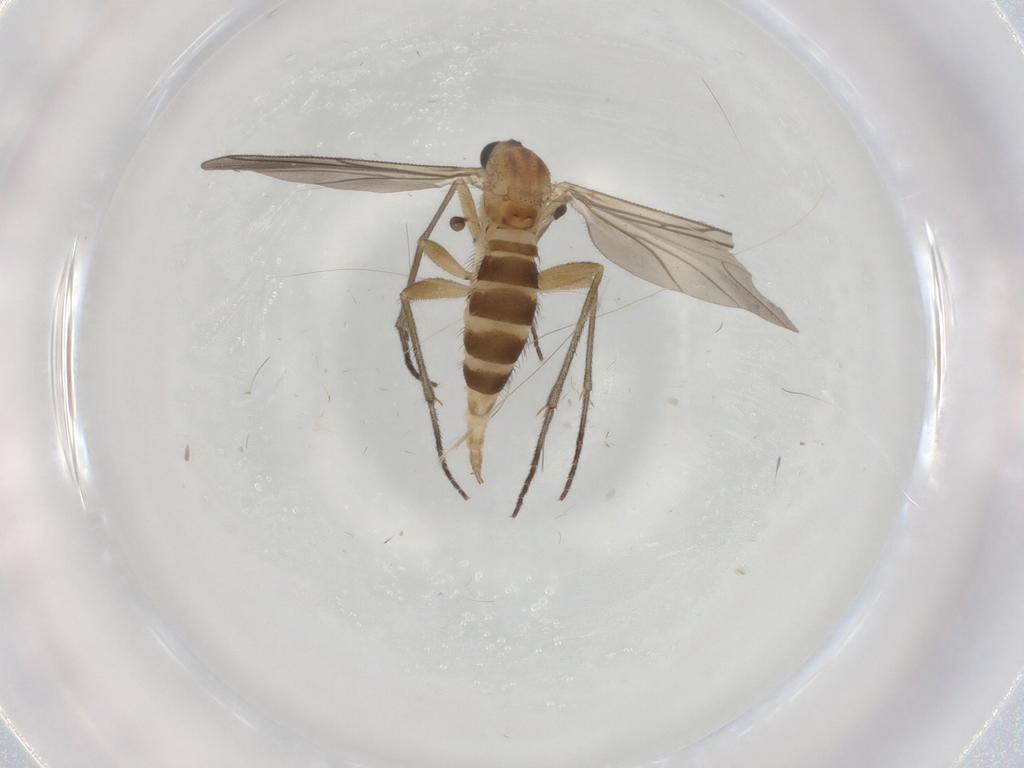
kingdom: Animalia
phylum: Arthropoda
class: Insecta
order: Diptera
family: Sciaridae
